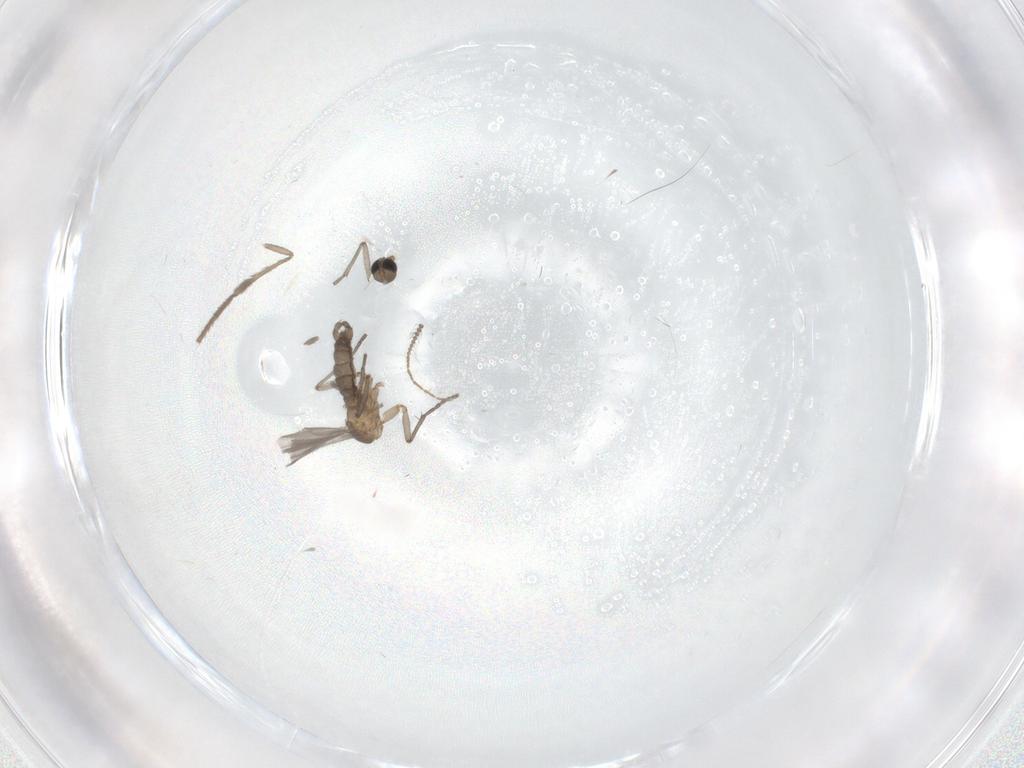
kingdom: Animalia
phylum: Arthropoda
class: Insecta
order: Diptera
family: Sciaridae
